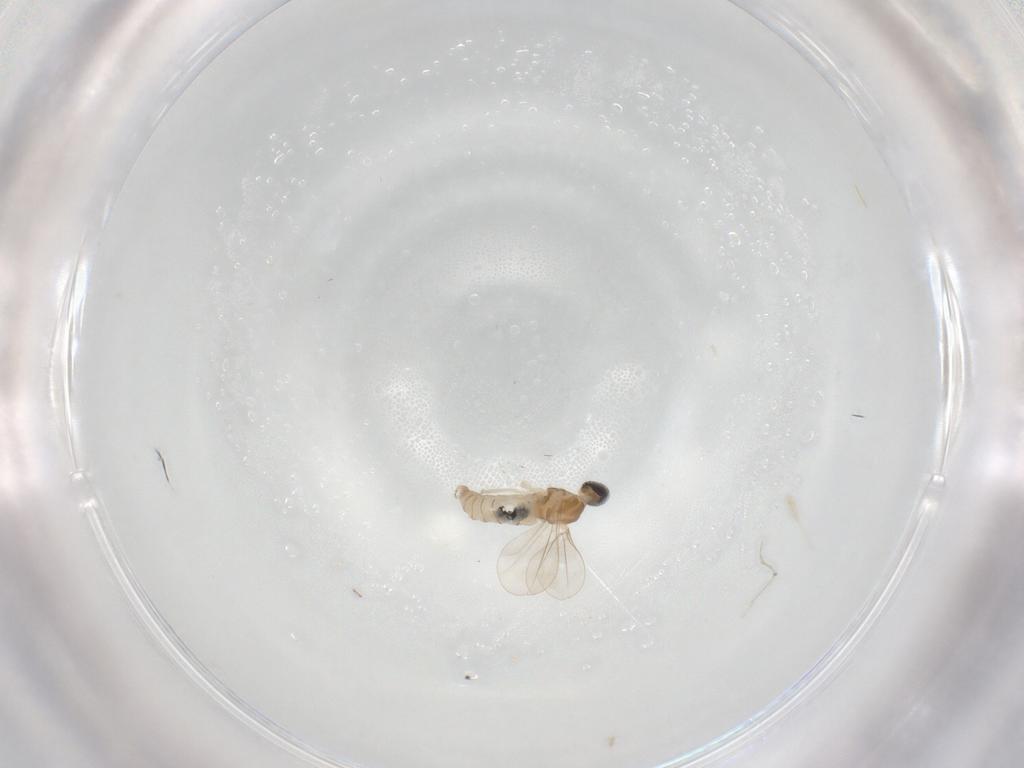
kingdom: Animalia
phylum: Arthropoda
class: Insecta
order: Diptera
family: Cecidomyiidae
